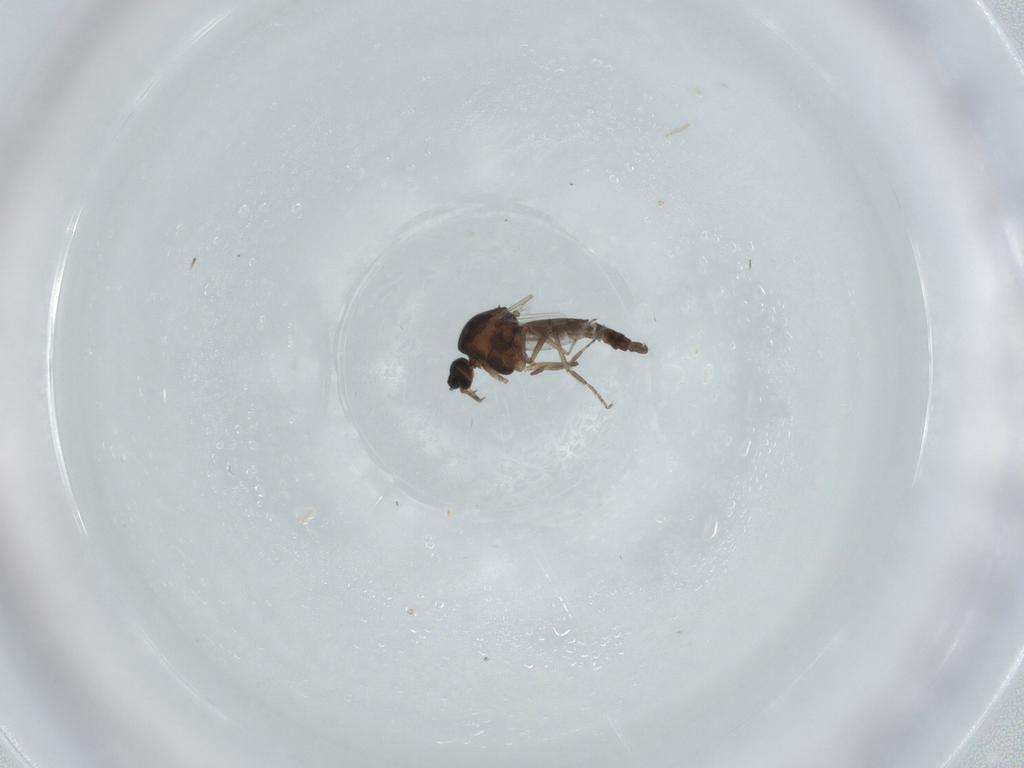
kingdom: Animalia
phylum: Arthropoda
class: Insecta
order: Diptera
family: Ceratopogonidae
